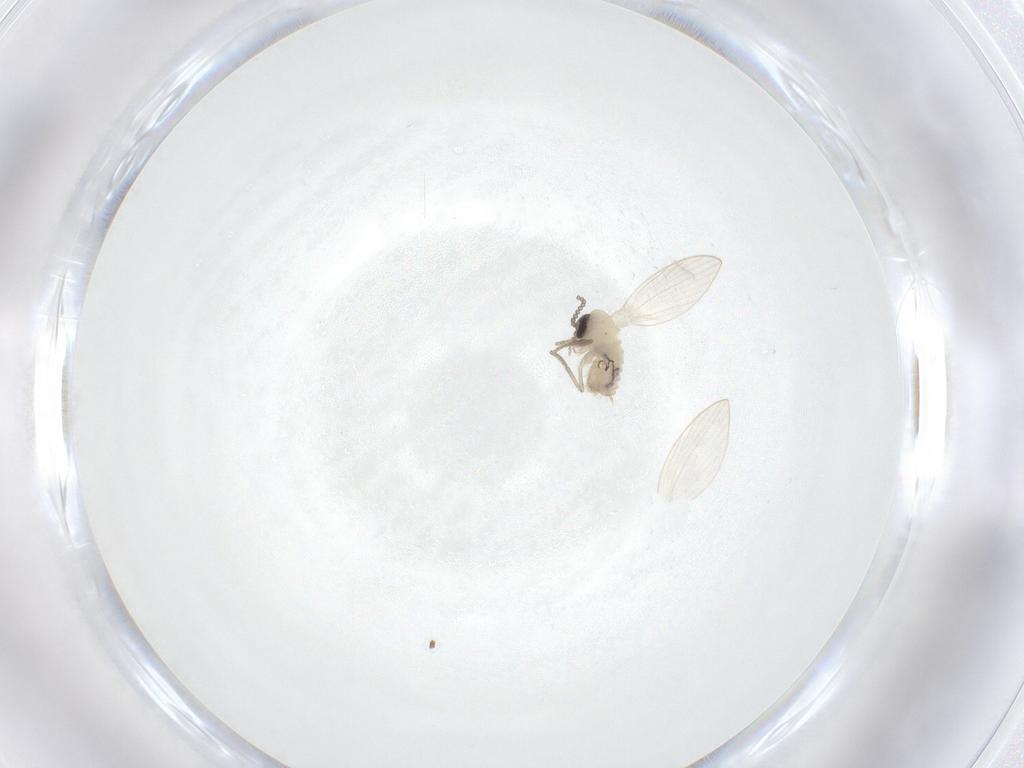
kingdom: Animalia
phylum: Arthropoda
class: Insecta
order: Diptera
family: Psychodidae
